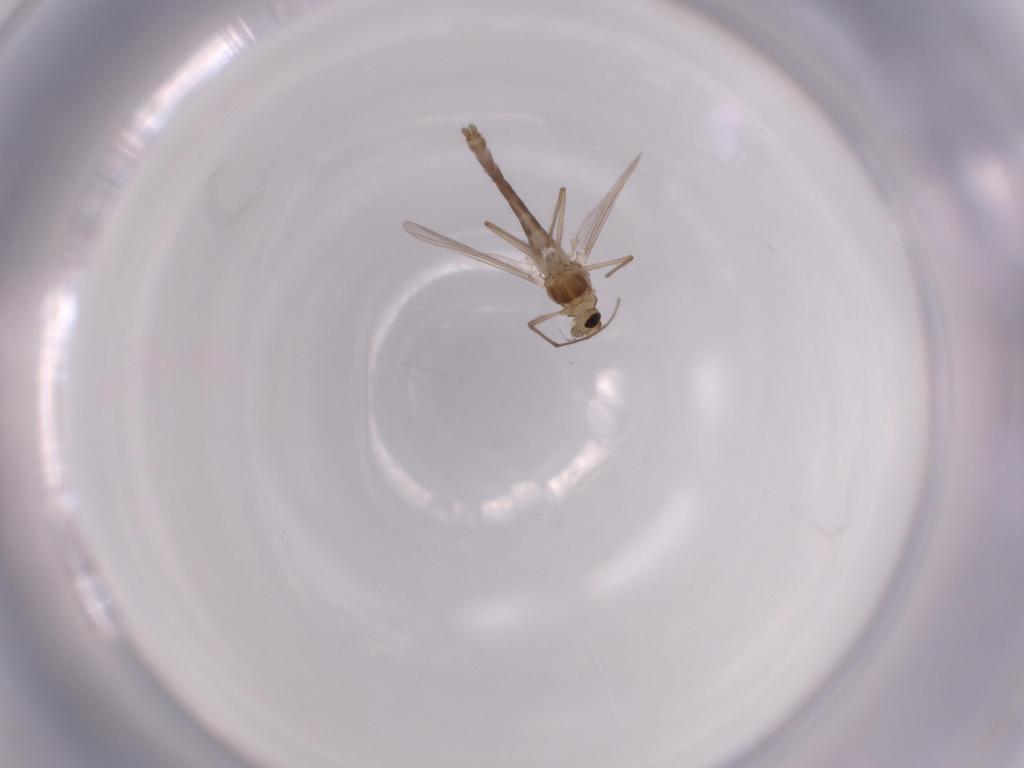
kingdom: Animalia
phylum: Arthropoda
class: Insecta
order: Diptera
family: Chironomidae
